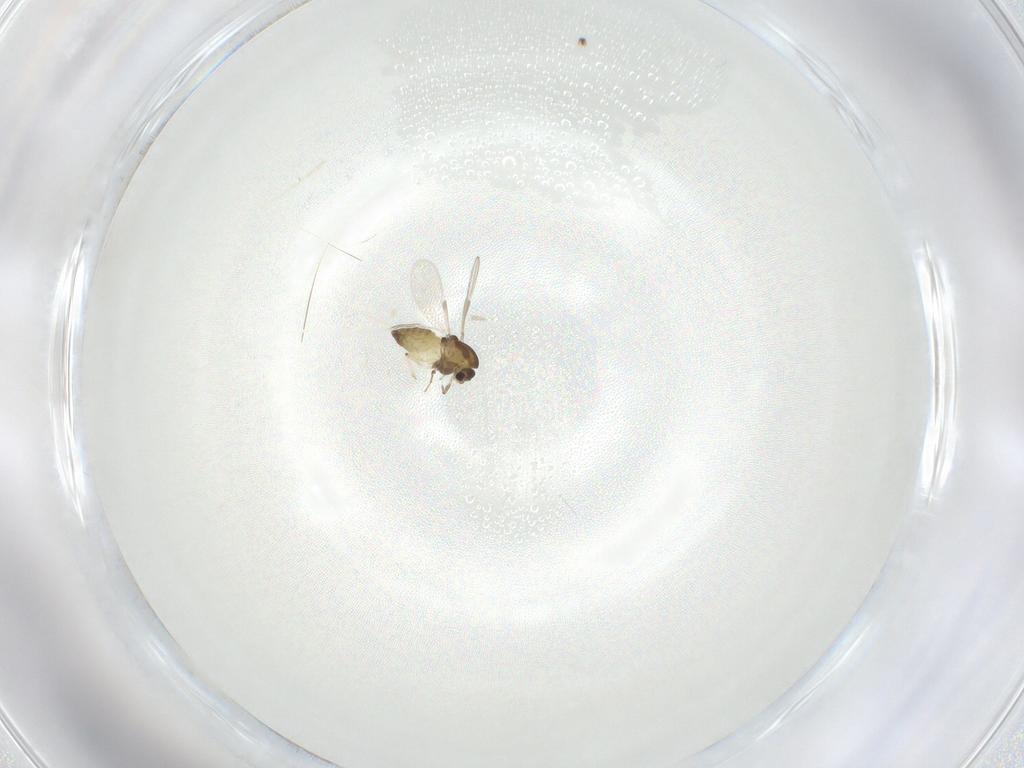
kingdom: Animalia
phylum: Arthropoda
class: Insecta
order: Diptera
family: Chironomidae
